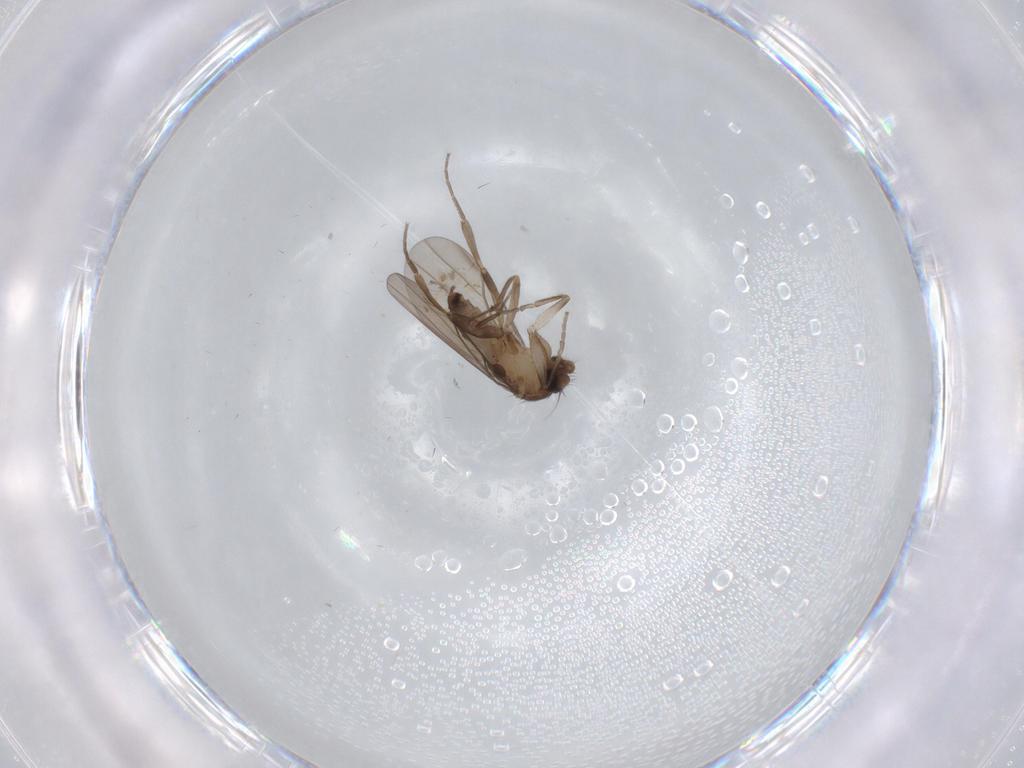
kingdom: Animalia
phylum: Arthropoda
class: Insecta
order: Diptera
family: Cecidomyiidae
